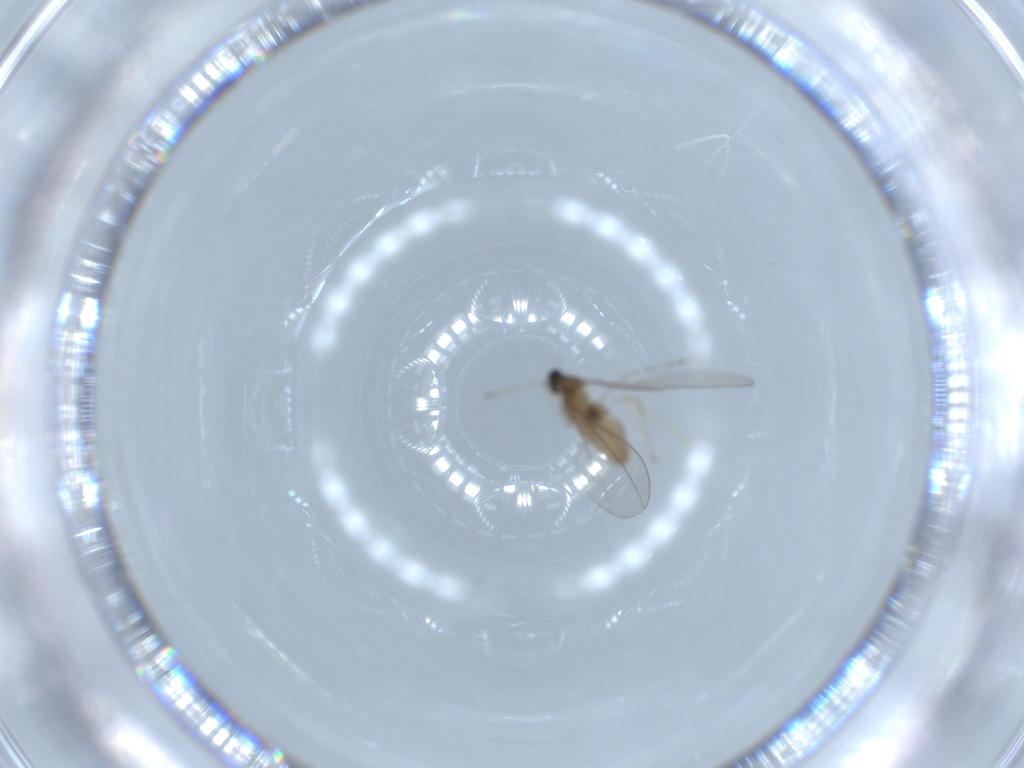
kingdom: Animalia
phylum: Arthropoda
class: Insecta
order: Diptera
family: Cecidomyiidae
